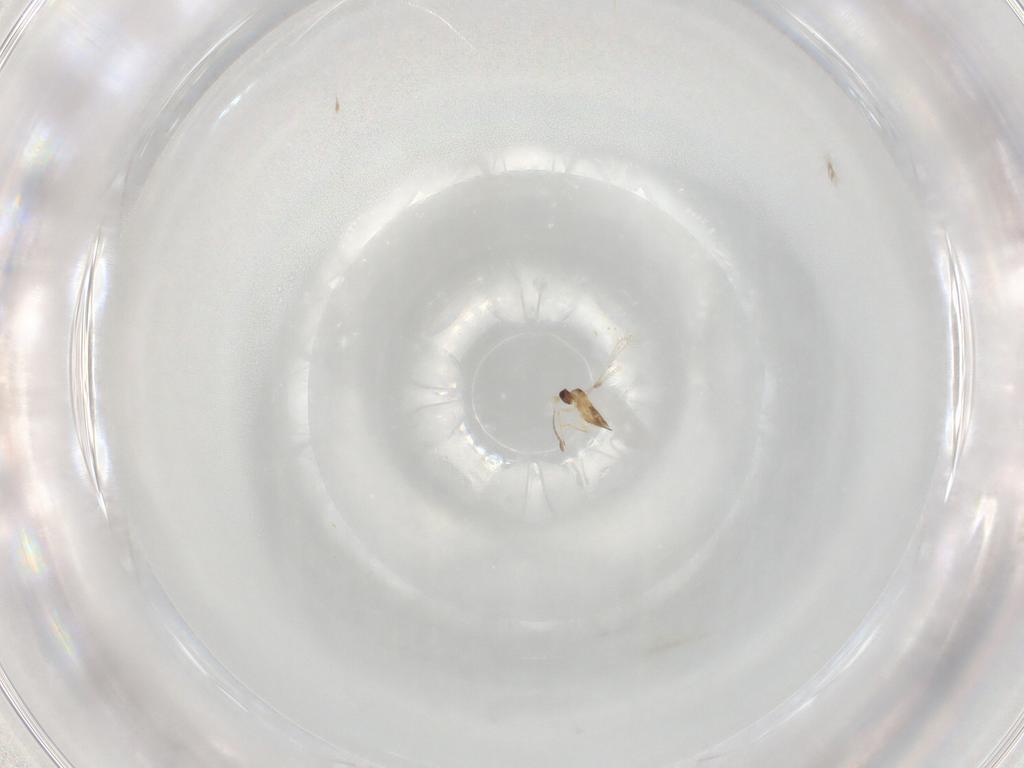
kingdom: Animalia
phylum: Arthropoda
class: Insecta
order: Hymenoptera
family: Mymaridae
